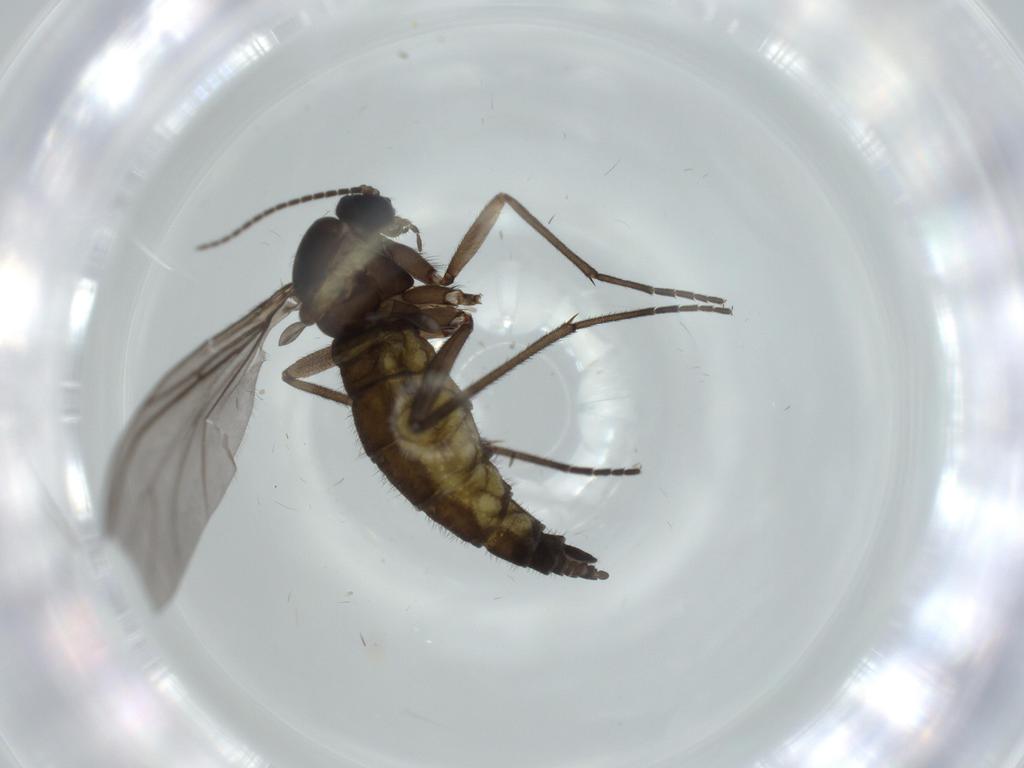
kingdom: Animalia
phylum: Arthropoda
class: Insecta
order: Diptera
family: Sciaridae
